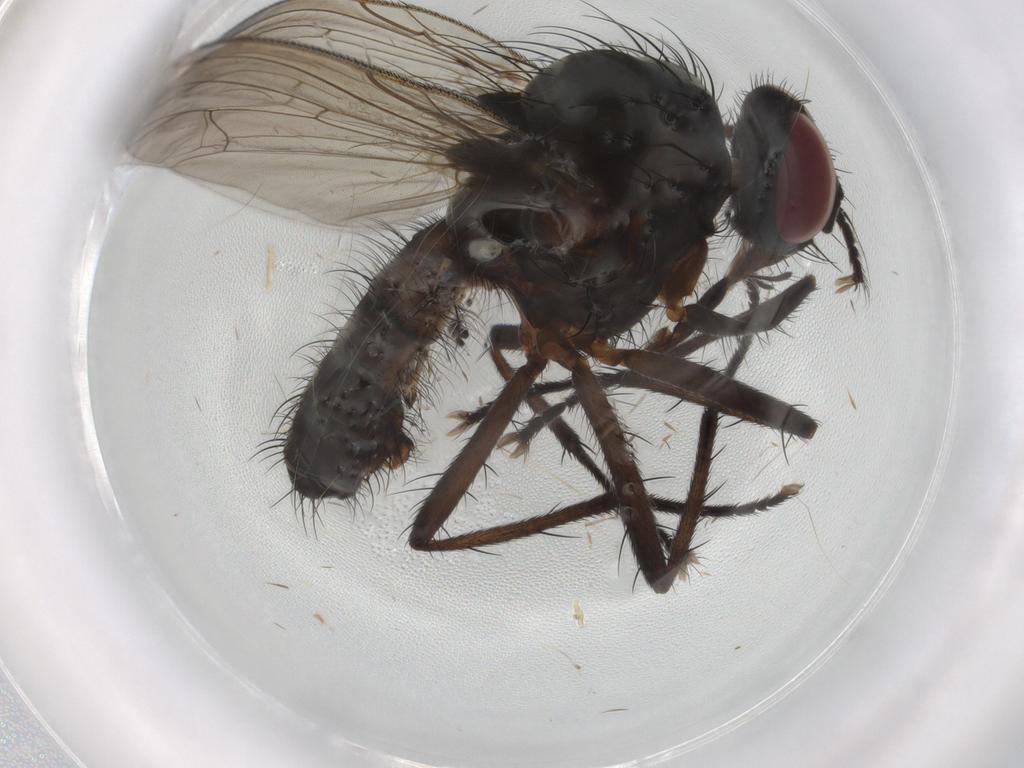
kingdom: Animalia
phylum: Arthropoda
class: Insecta
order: Diptera
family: Anthomyiidae
